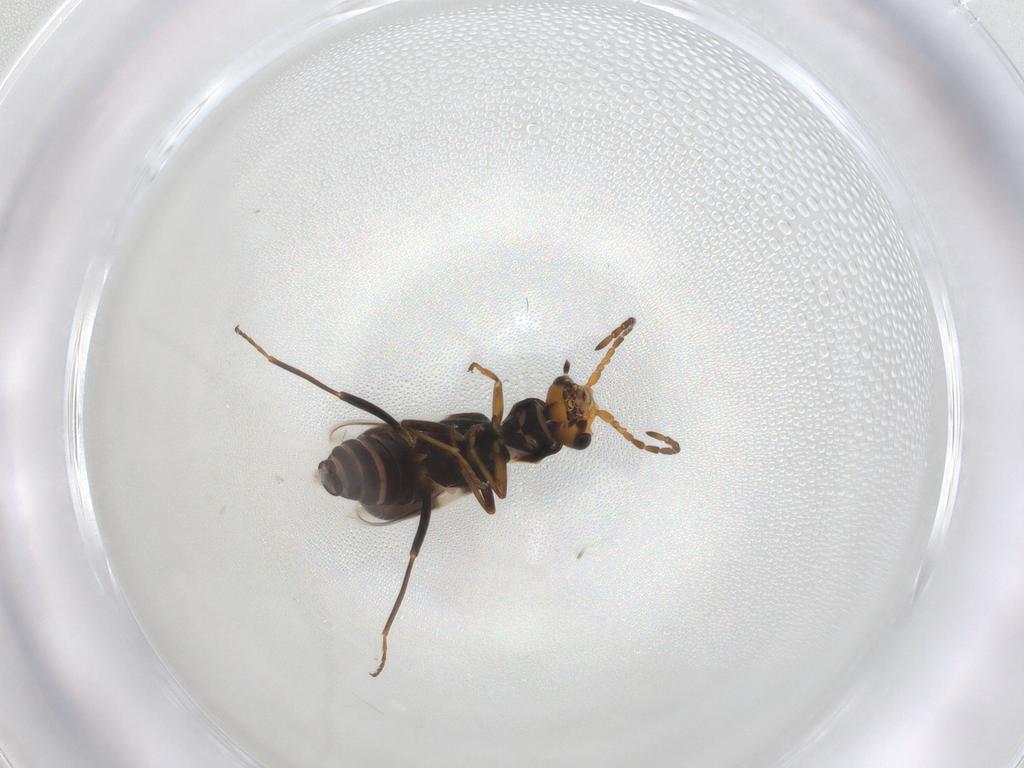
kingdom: Animalia
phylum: Arthropoda
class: Insecta
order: Coleoptera
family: Melyridae
